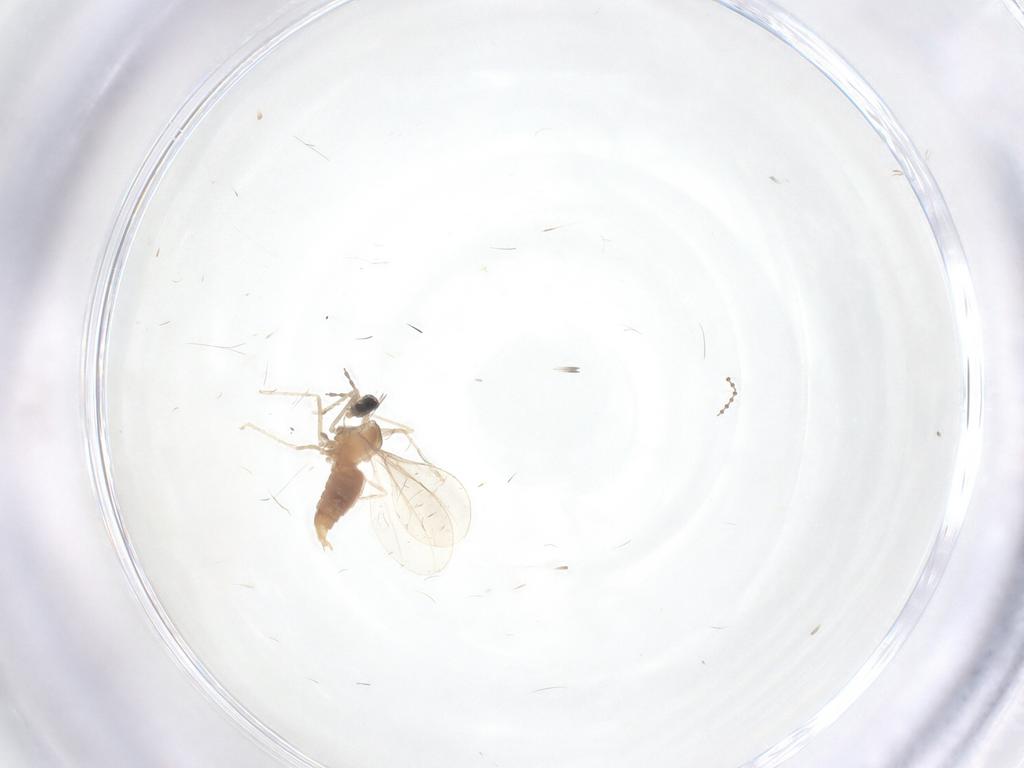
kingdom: Animalia
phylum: Arthropoda
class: Insecta
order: Diptera
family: Cecidomyiidae
